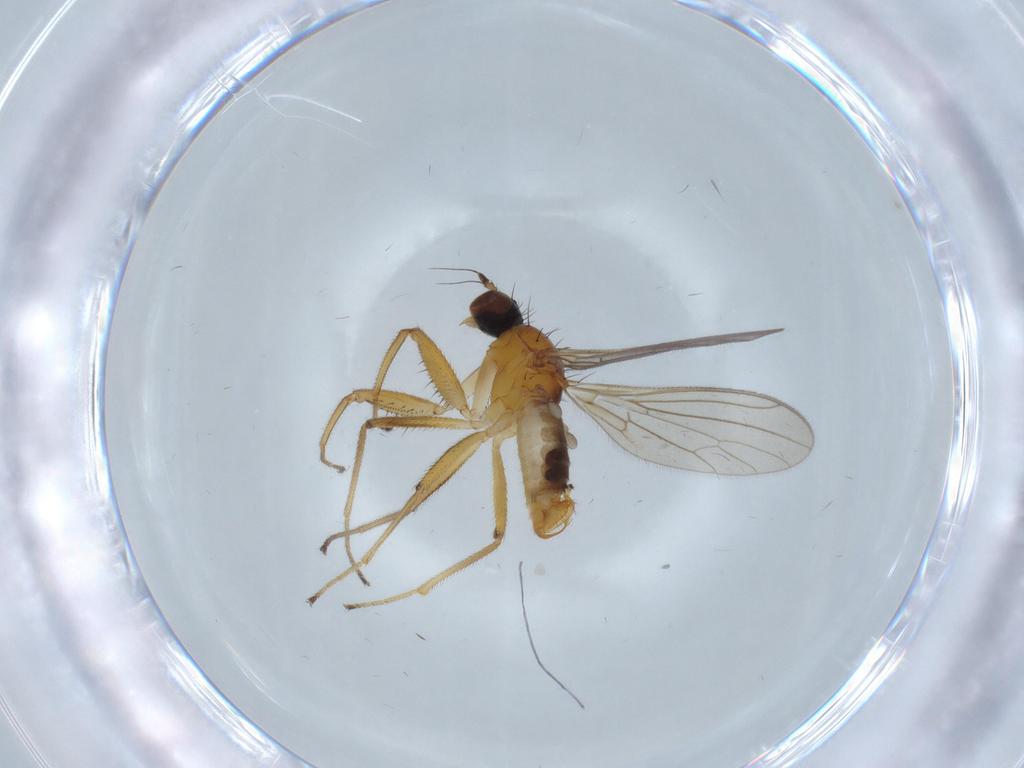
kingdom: Animalia
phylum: Arthropoda
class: Insecta
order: Diptera
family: Empididae
